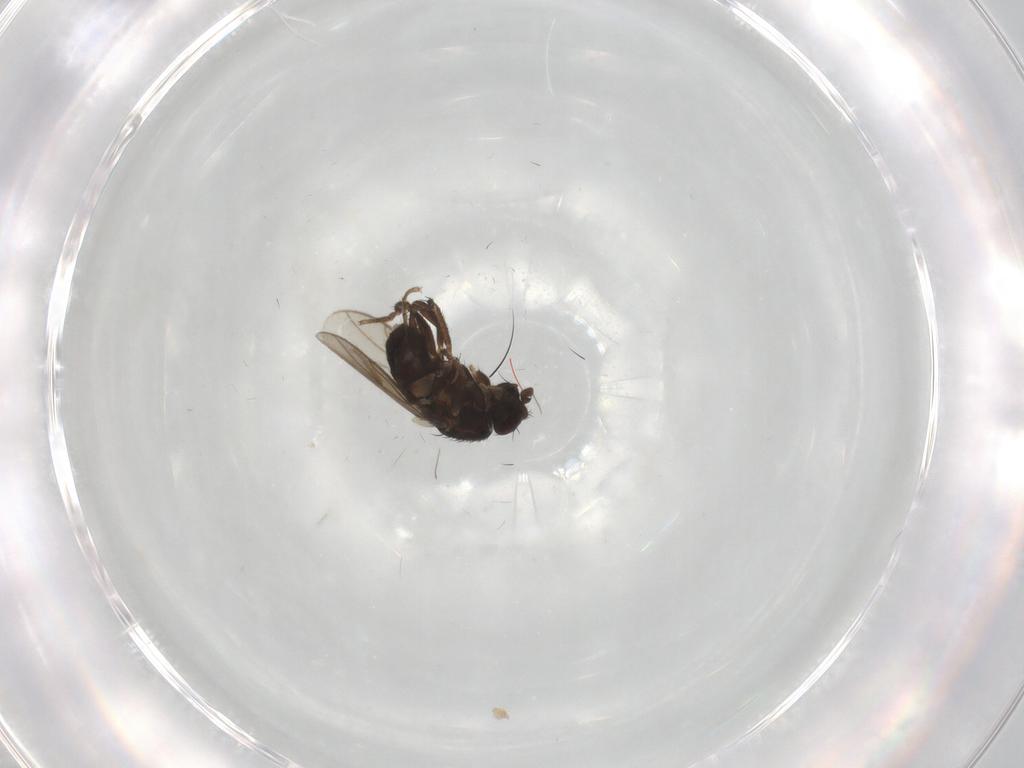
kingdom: Animalia
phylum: Arthropoda
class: Insecta
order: Diptera
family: Sphaeroceridae
